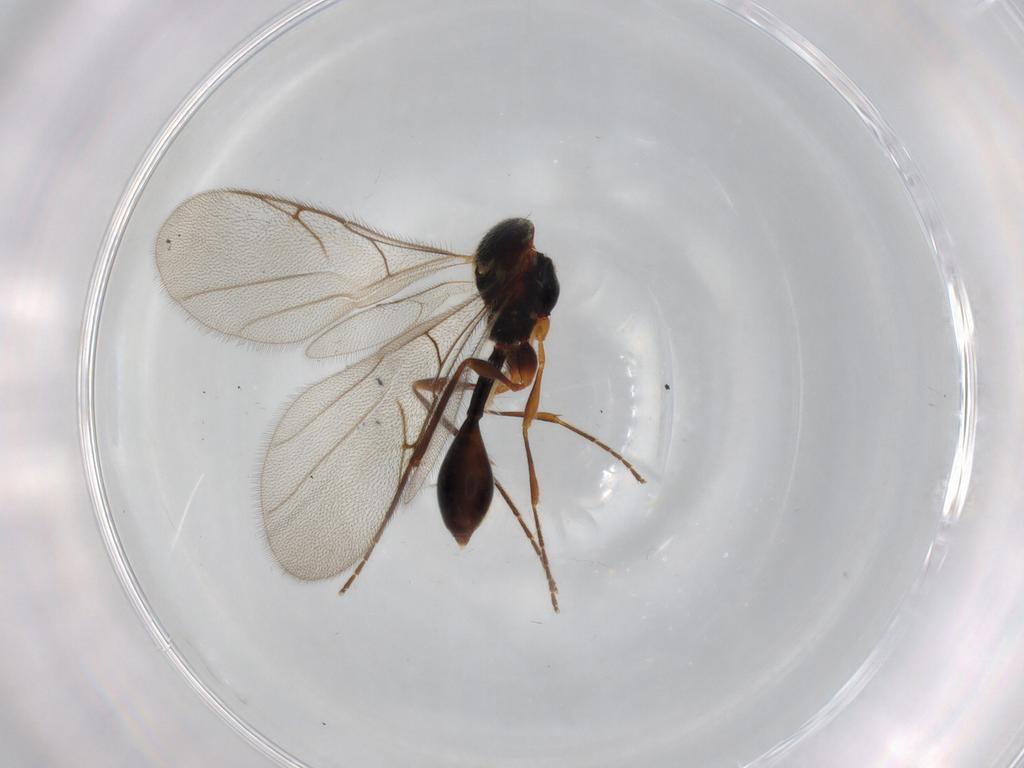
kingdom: Animalia
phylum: Arthropoda
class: Insecta
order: Hymenoptera
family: Diapriidae
